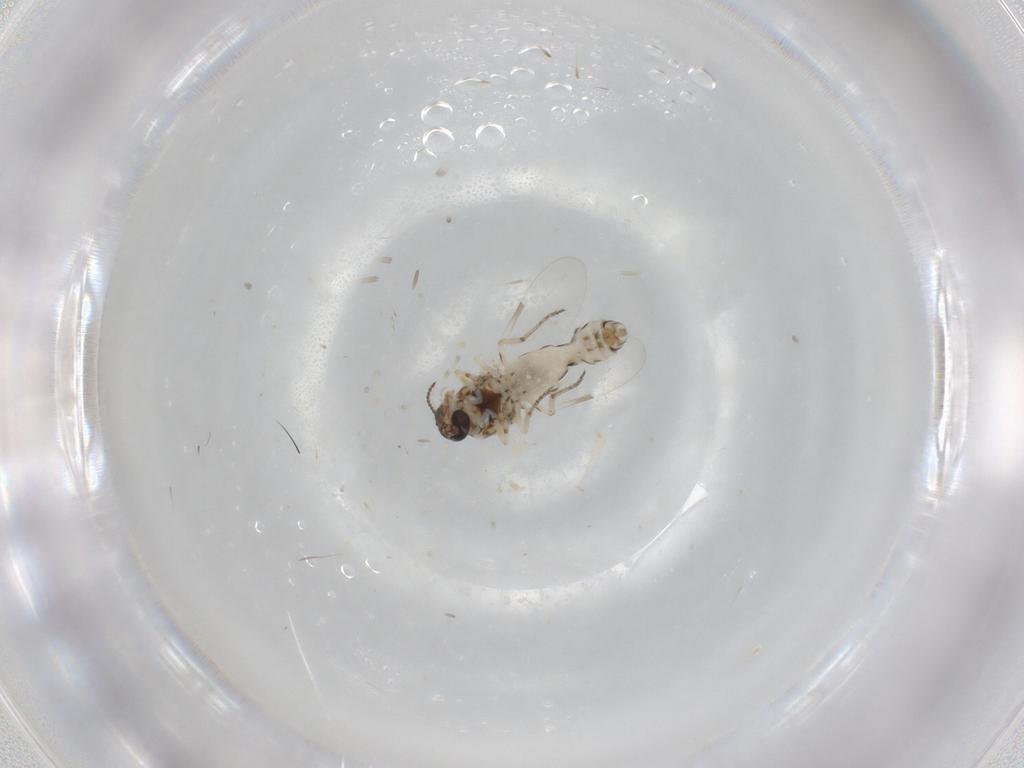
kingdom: Animalia
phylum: Arthropoda
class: Insecta
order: Diptera
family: Ceratopogonidae
